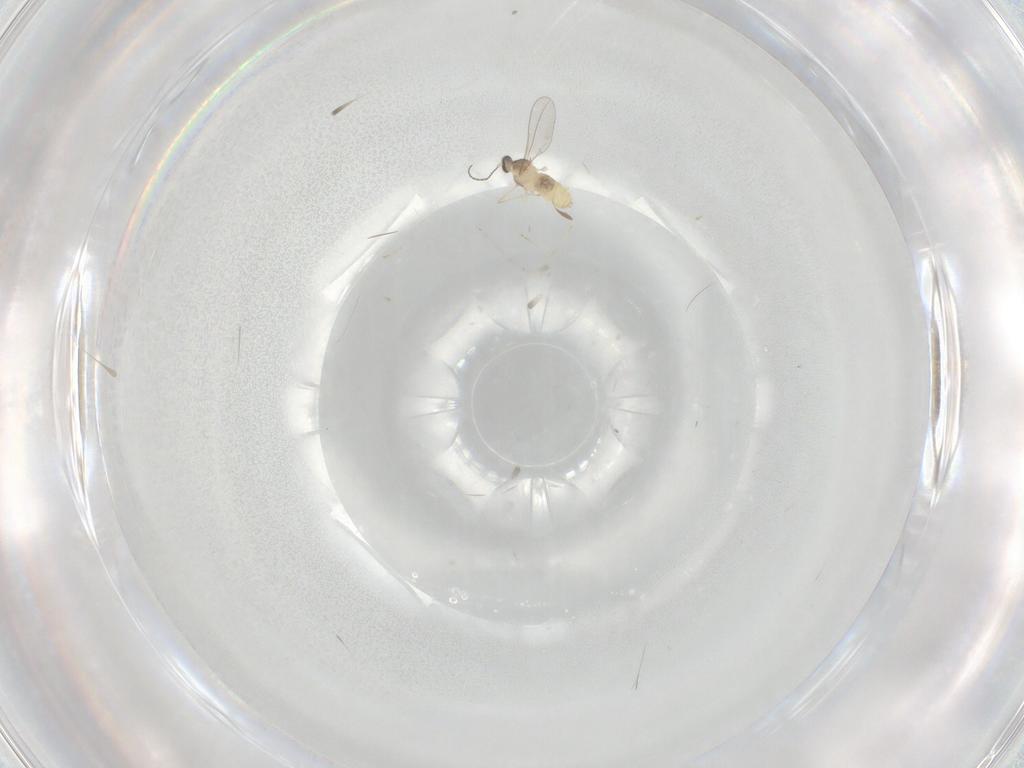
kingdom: Animalia
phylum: Arthropoda
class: Insecta
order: Diptera
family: Cecidomyiidae
